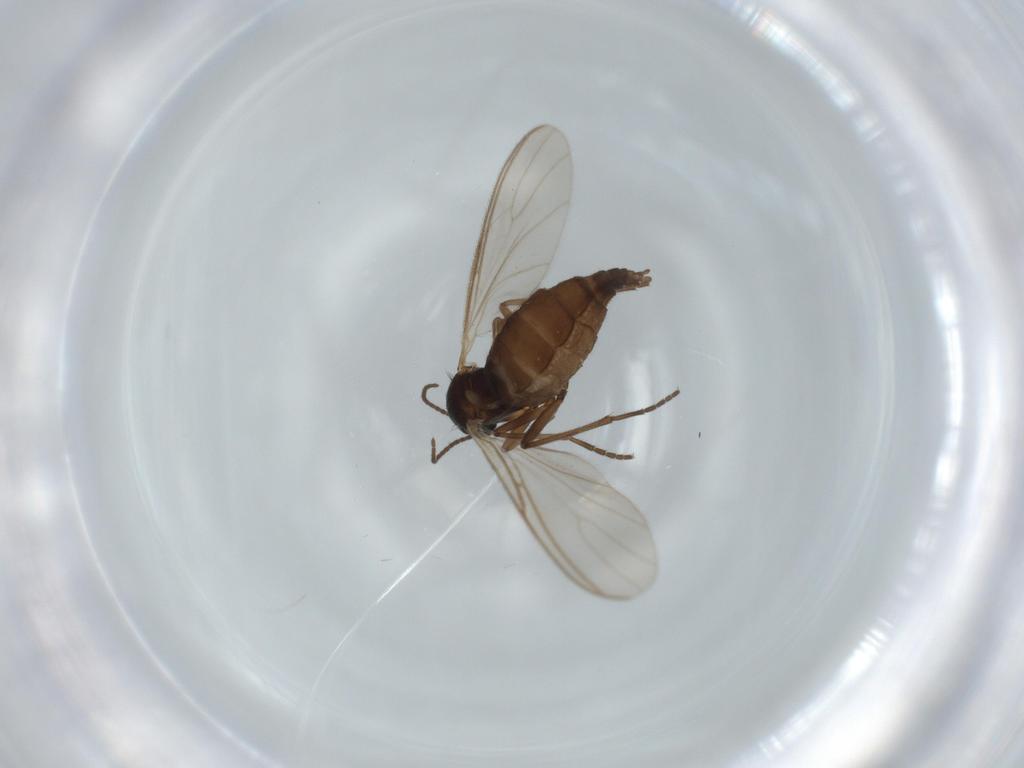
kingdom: Animalia
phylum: Arthropoda
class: Insecta
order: Diptera
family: Sciaridae
